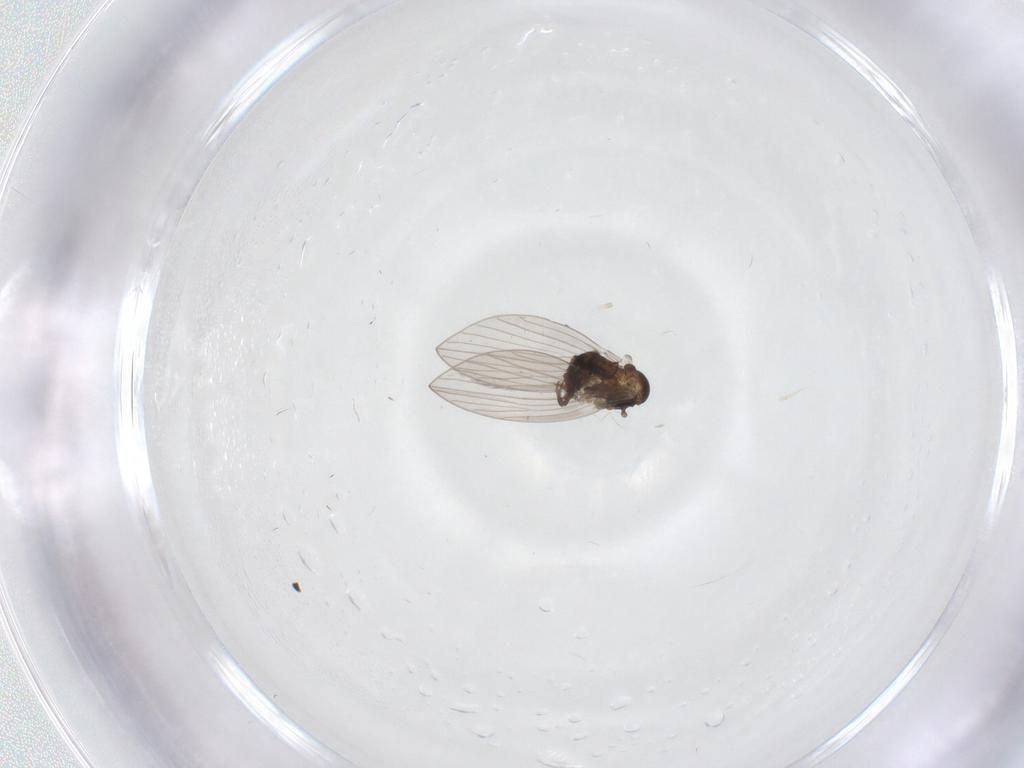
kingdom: Animalia
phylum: Arthropoda
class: Insecta
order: Diptera
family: Psychodidae
